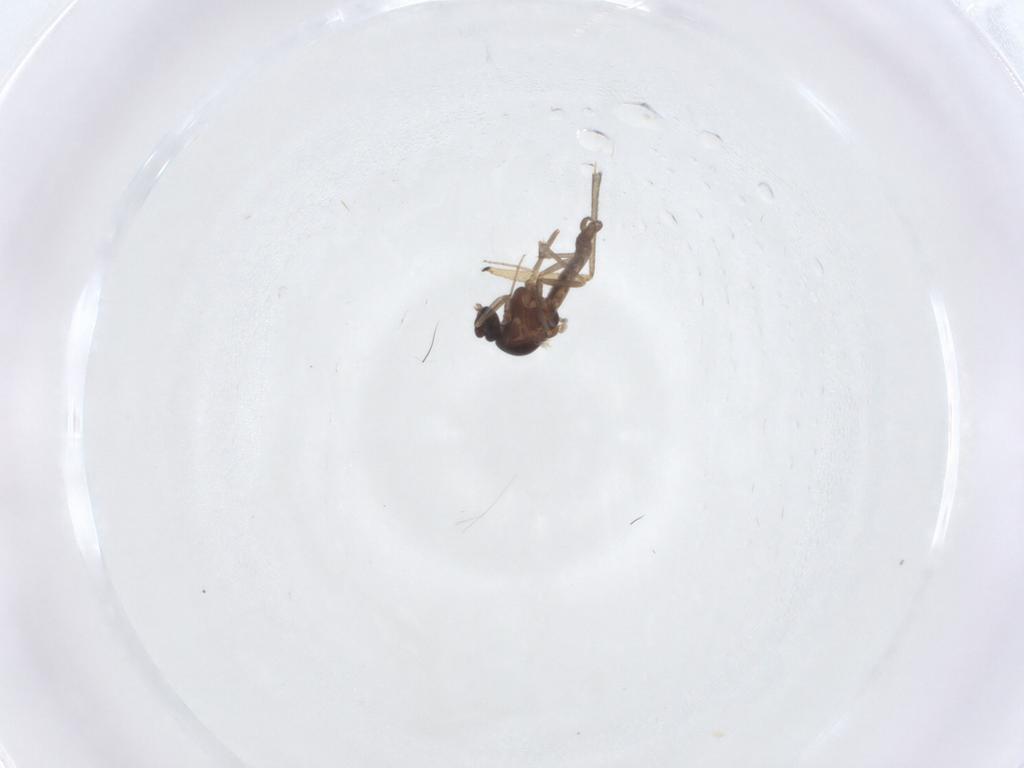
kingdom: Animalia
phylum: Arthropoda
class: Insecta
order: Diptera
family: Ceratopogonidae
